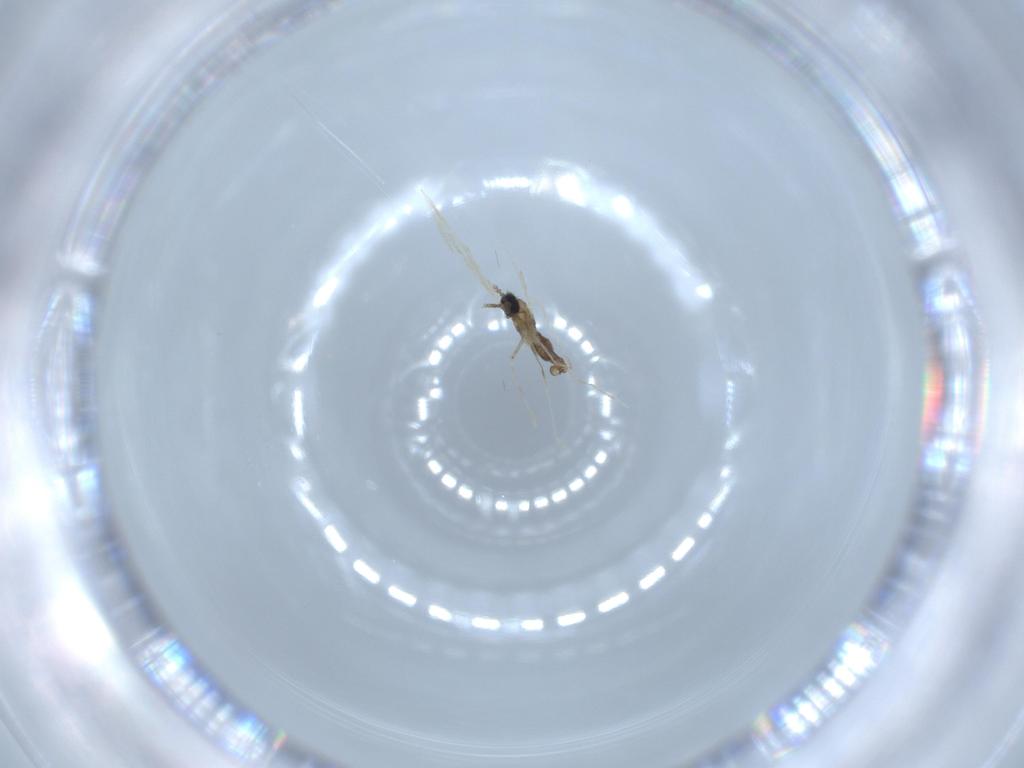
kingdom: Animalia
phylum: Arthropoda
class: Insecta
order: Diptera
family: Cecidomyiidae
